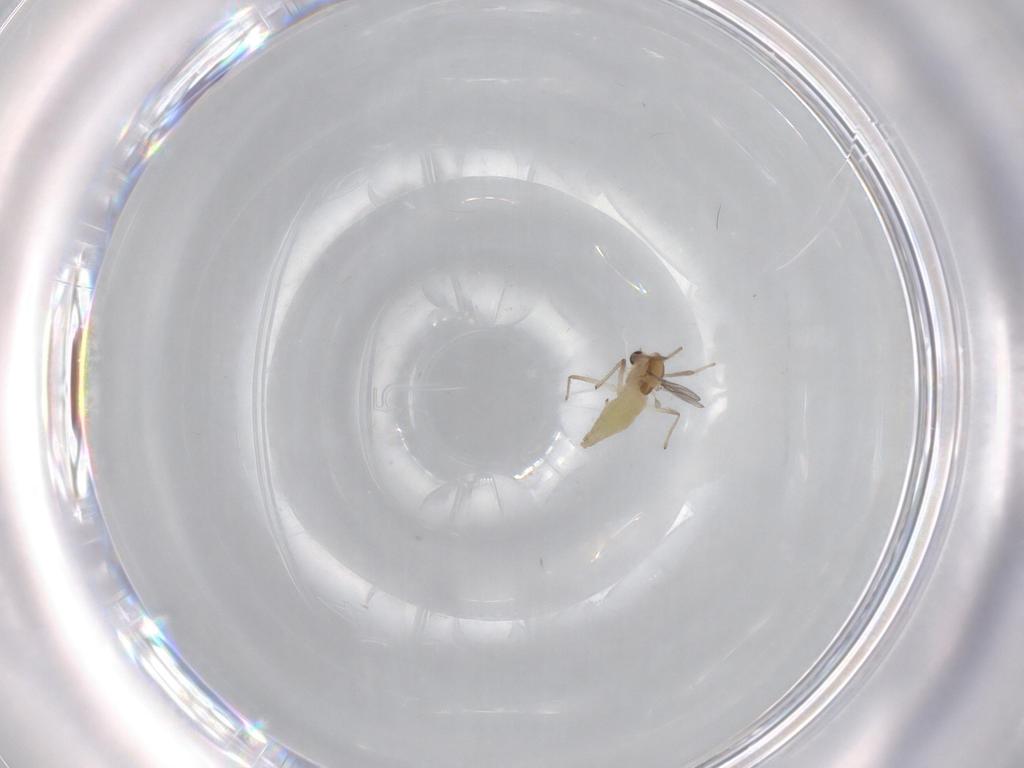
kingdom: Animalia
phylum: Arthropoda
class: Insecta
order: Diptera
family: Chironomidae
